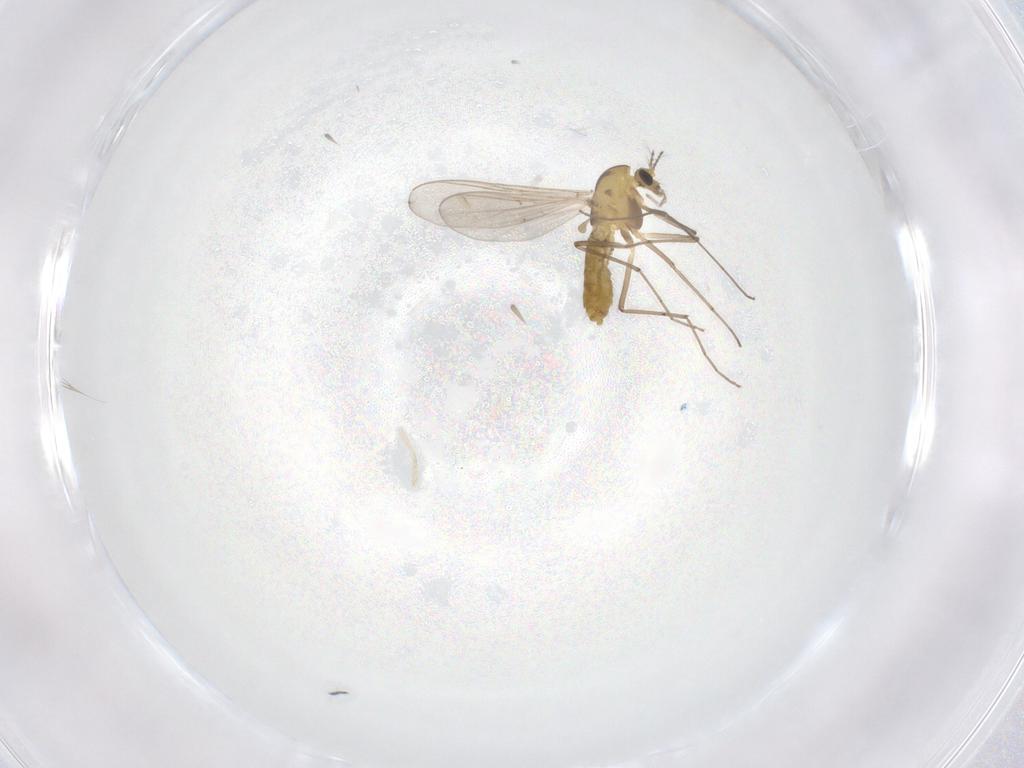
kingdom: Animalia
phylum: Arthropoda
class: Insecta
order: Diptera
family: Chironomidae
